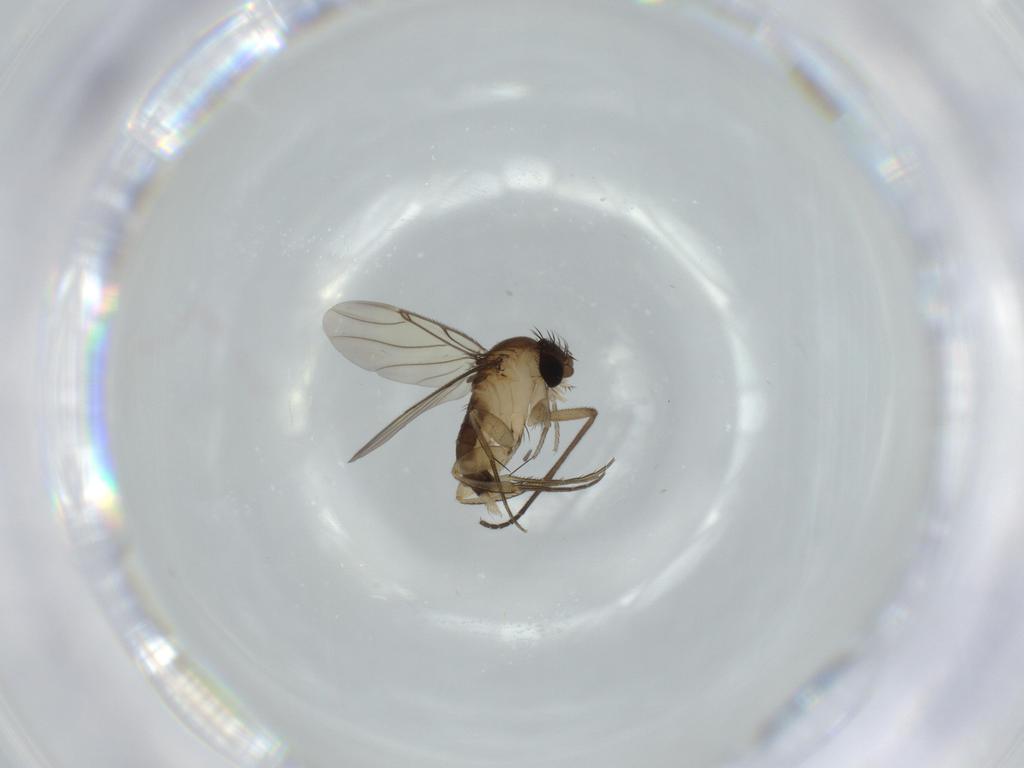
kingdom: Animalia
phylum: Arthropoda
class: Insecta
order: Diptera
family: Phoridae
